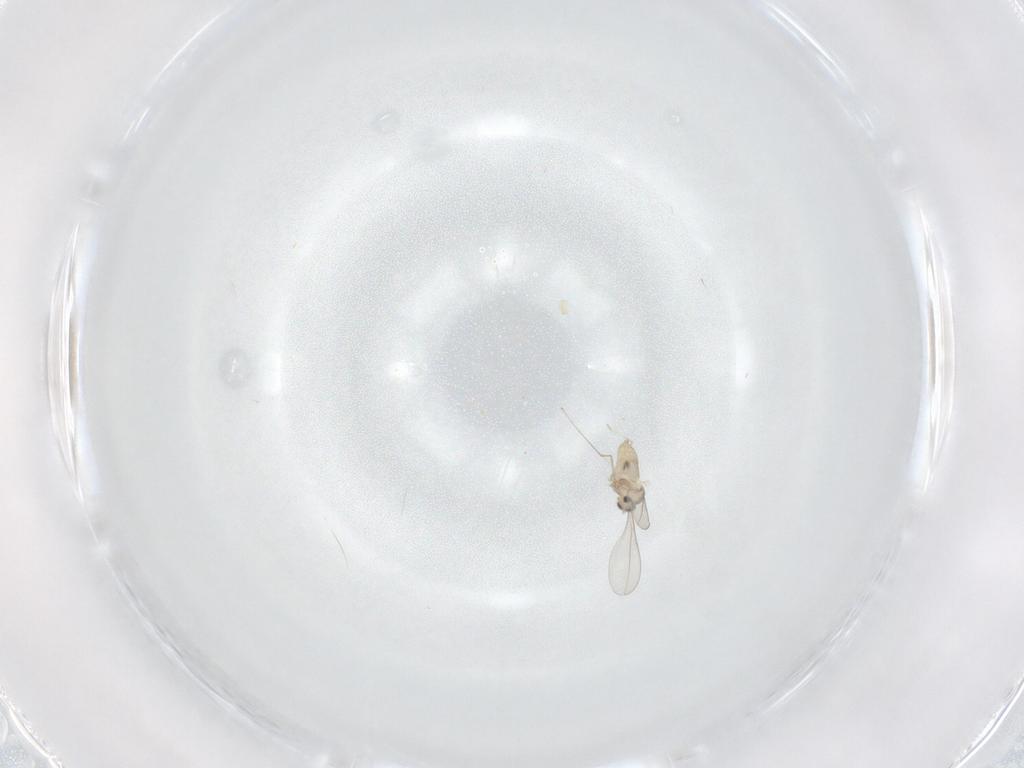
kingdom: Animalia
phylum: Arthropoda
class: Insecta
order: Diptera
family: Cecidomyiidae
